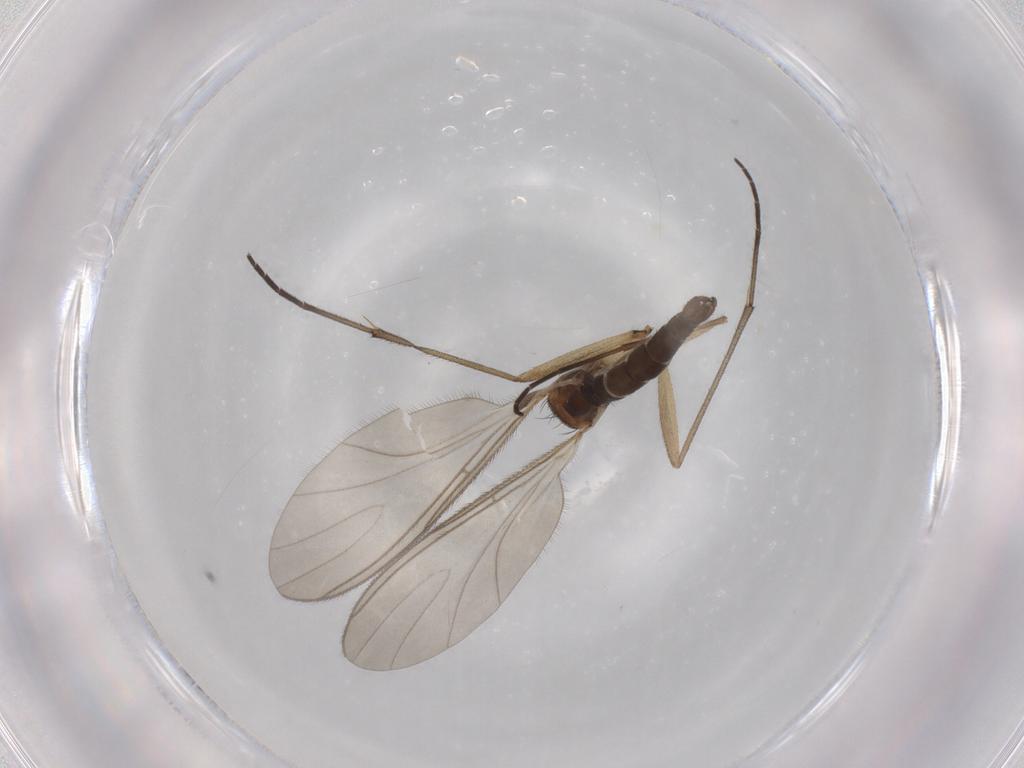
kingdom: Animalia
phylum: Arthropoda
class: Insecta
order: Diptera
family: Sciaridae
